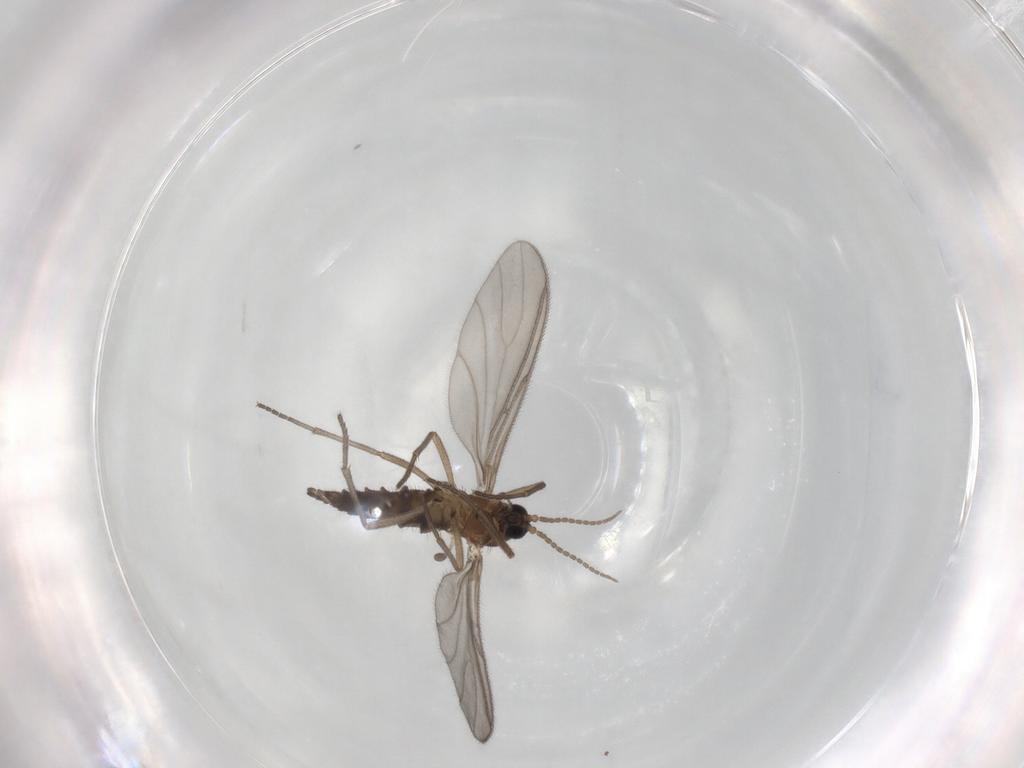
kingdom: Animalia
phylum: Arthropoda
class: Insecta
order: Diptera
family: Sciaridae
